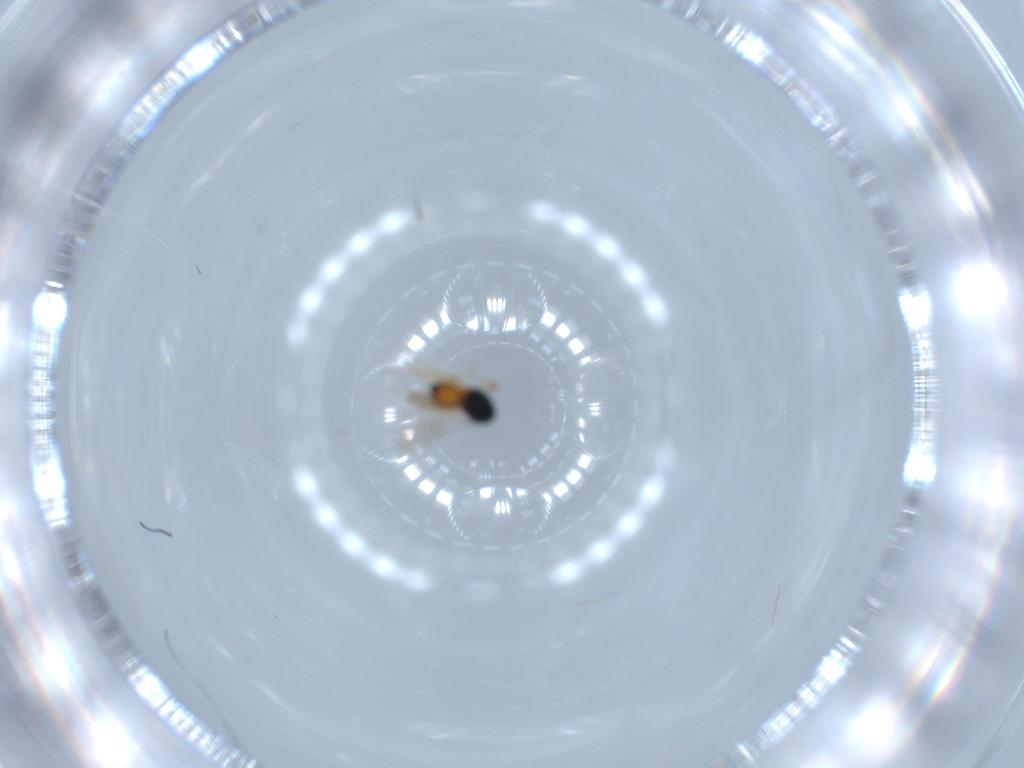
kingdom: Animalia
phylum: Arthropoda
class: Insecta
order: Hymenoptera
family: Scelionidae
